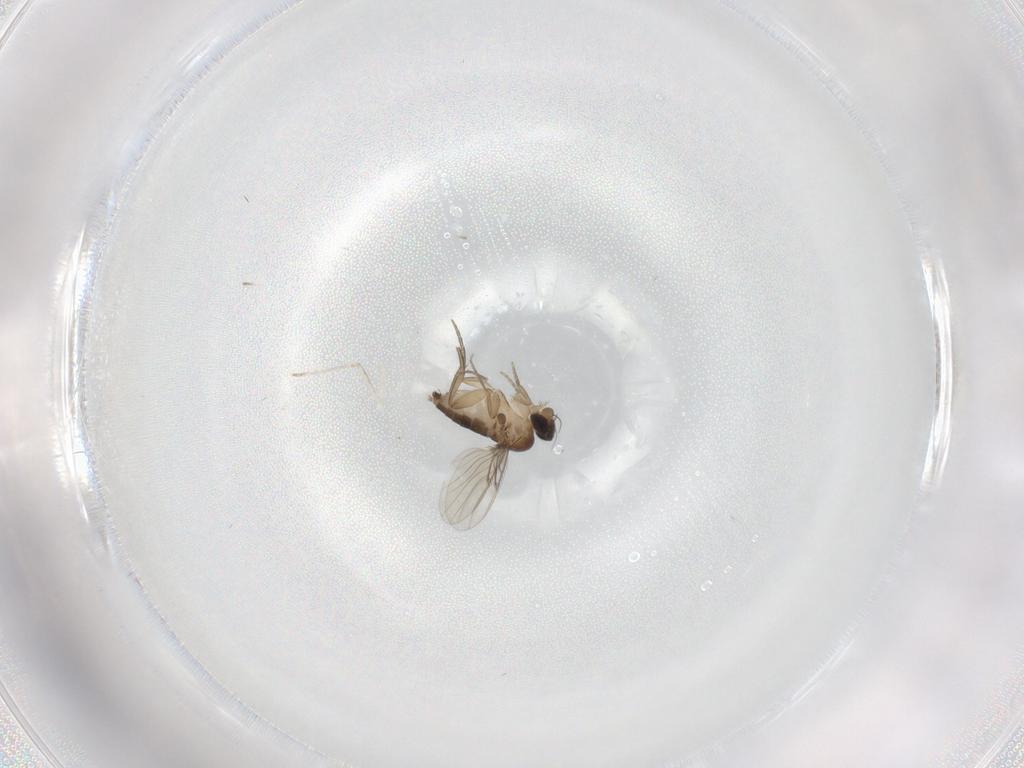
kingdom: Animalia
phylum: Arthropoda
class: Insecta
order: Diptera
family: Phoridae
